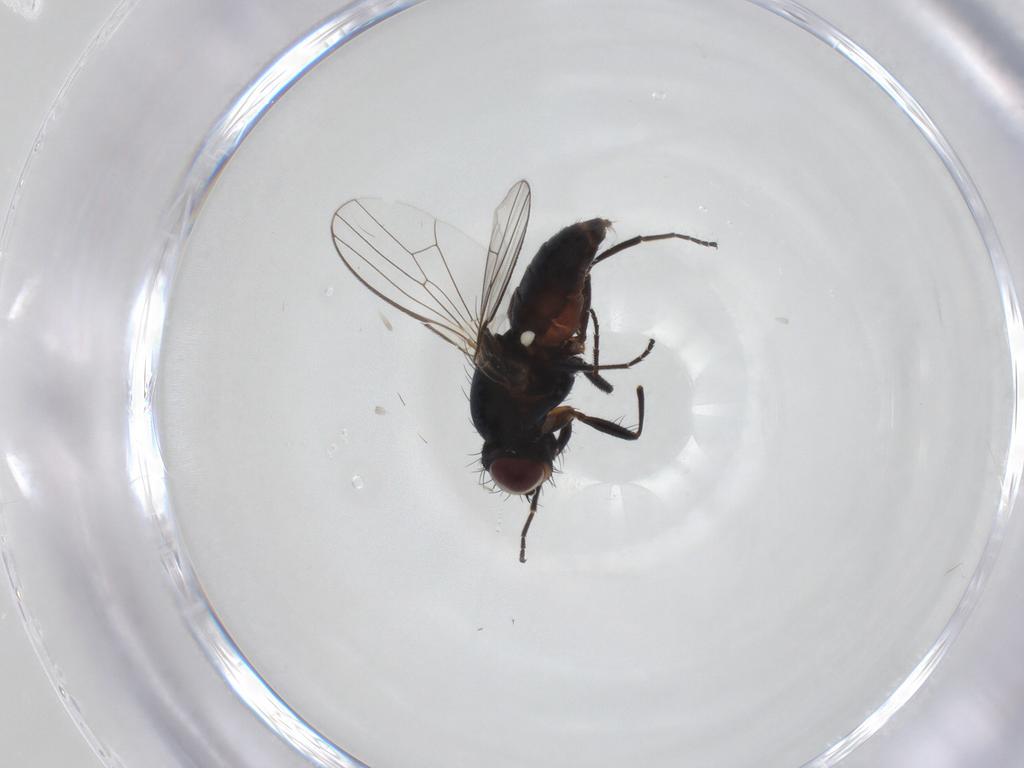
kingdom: Animalia
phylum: Arthropoda
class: Insecta
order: Diptera
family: Carnidae
